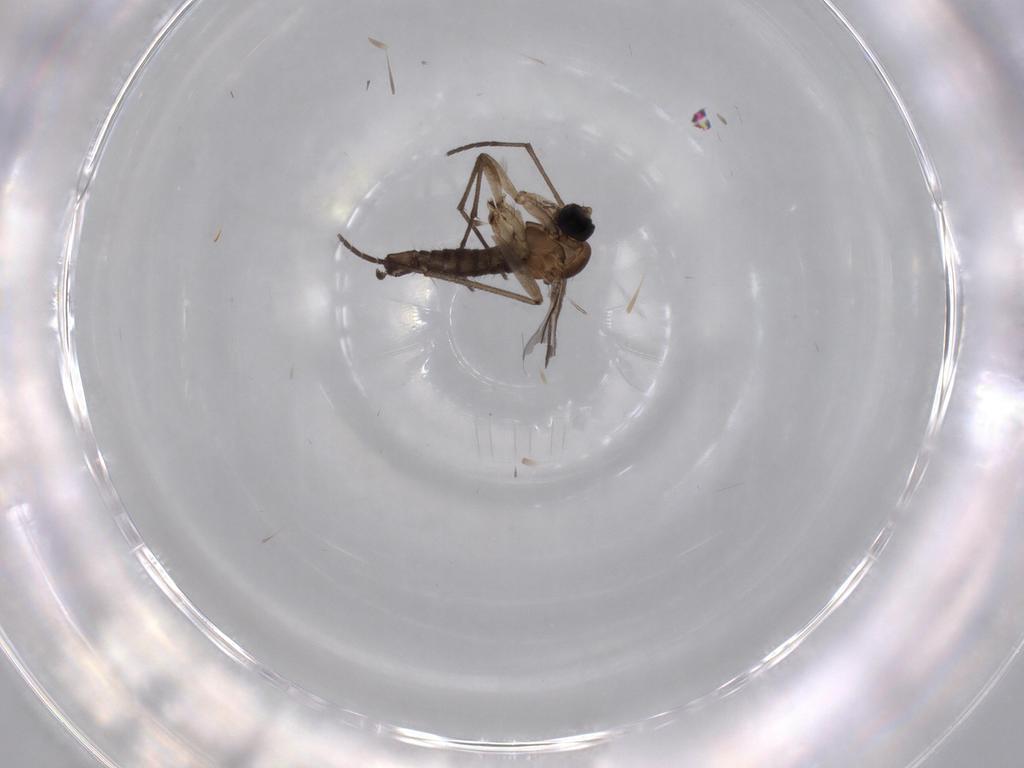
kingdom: Animalia
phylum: Arthropoda
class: Insecta
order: Diptera
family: Sciaridae
